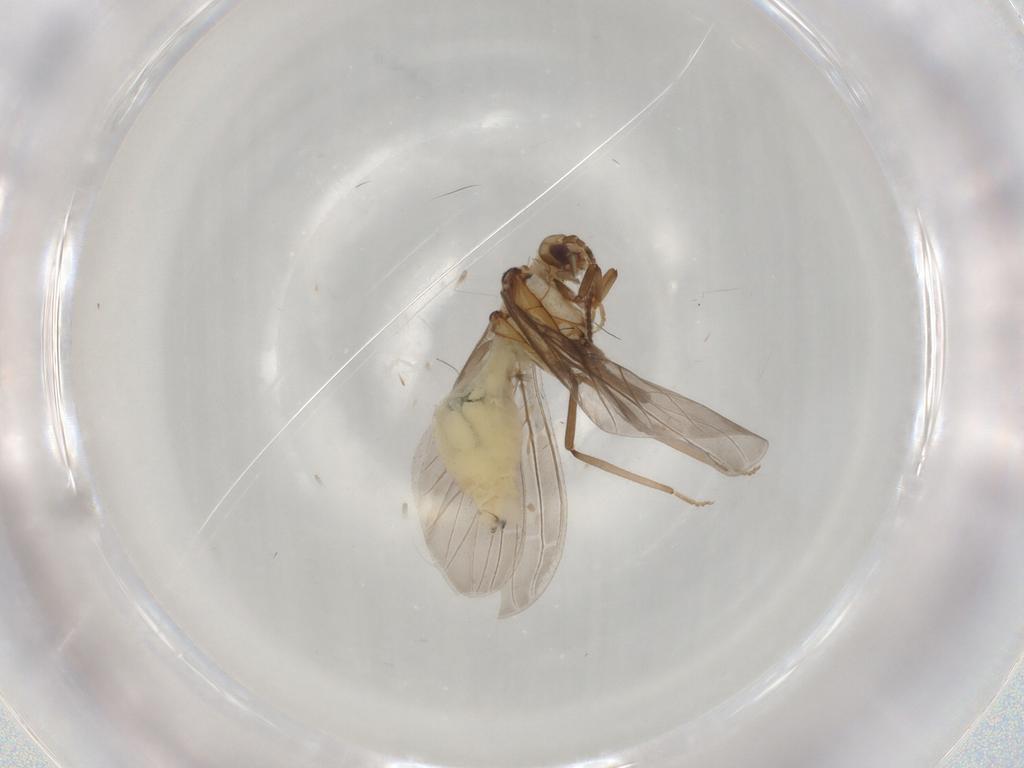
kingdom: Animalia
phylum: Arthropoda
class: Insecta
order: Neuroptera
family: Coniopterygidae
